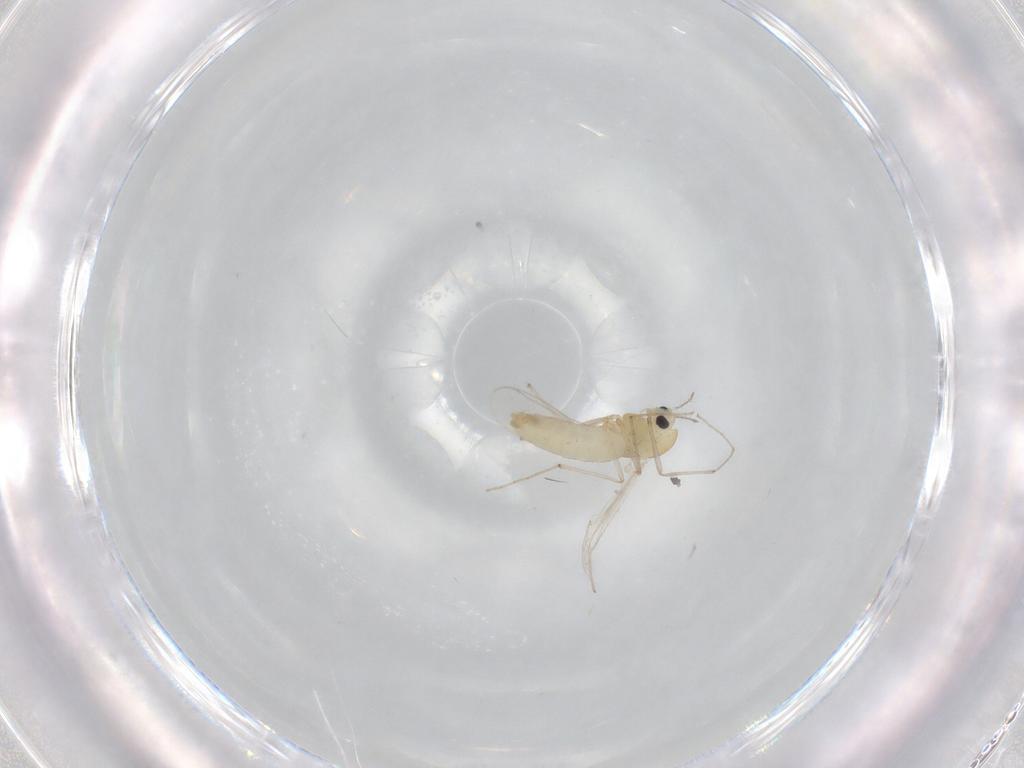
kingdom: Animalia
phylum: Arthropoda
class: Insecta
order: Diptera
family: Chironomidae
